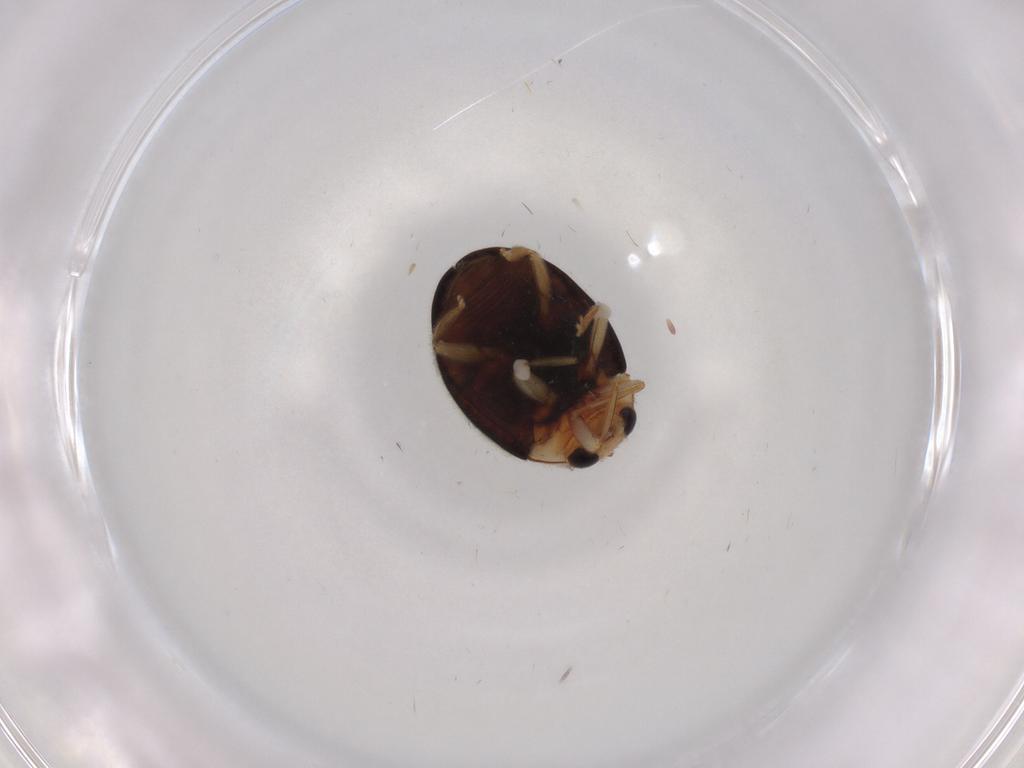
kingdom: Animalia
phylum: Arthropoda
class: Insecta
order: Coleoptera
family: Coccinellidae
